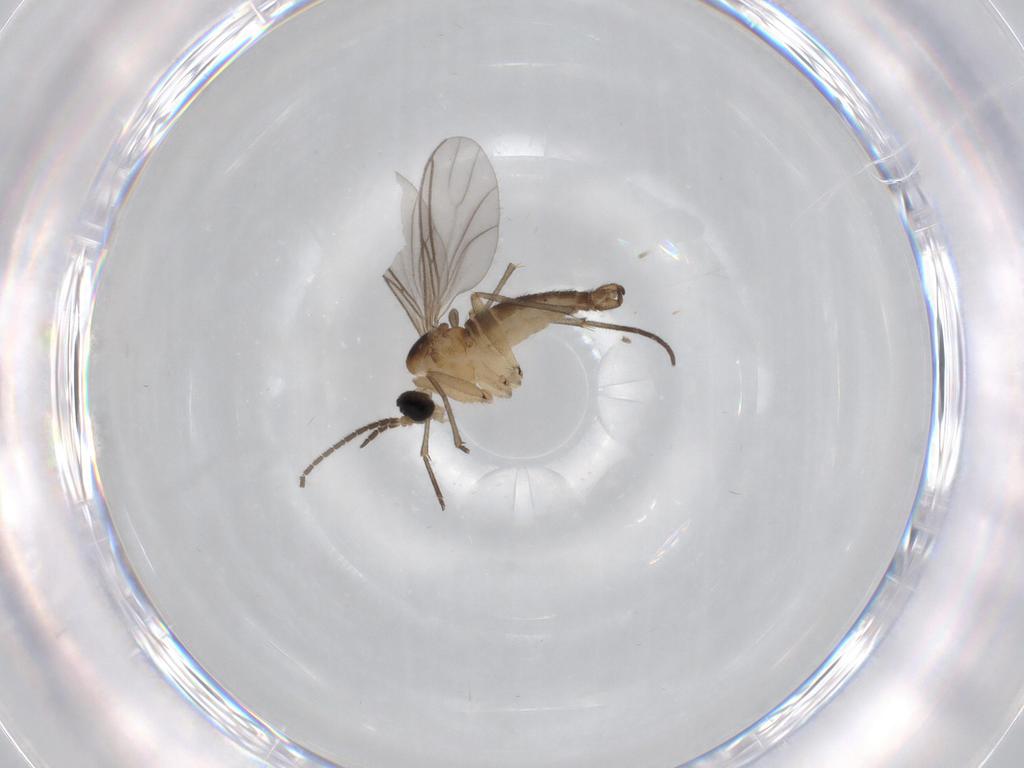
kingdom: Animalia
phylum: Arthropoda
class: Insecta
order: Diptera
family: Sciaridae
